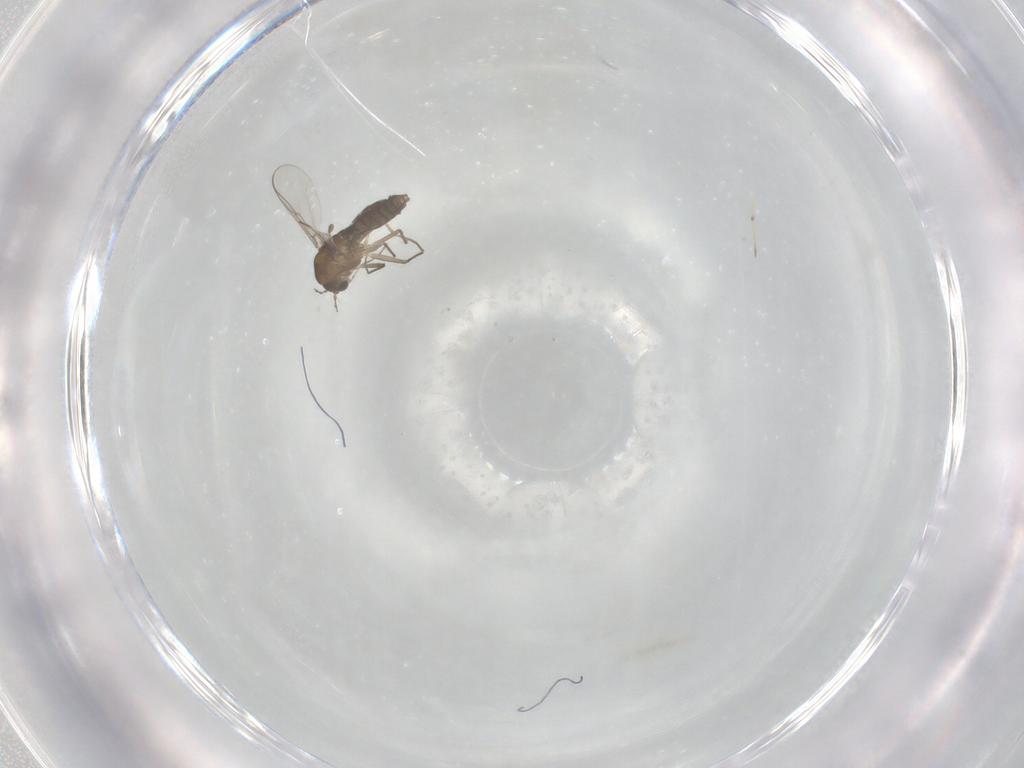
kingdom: Animalia
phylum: Arthropoda
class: Insecta
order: Diptera
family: Chironomidae
